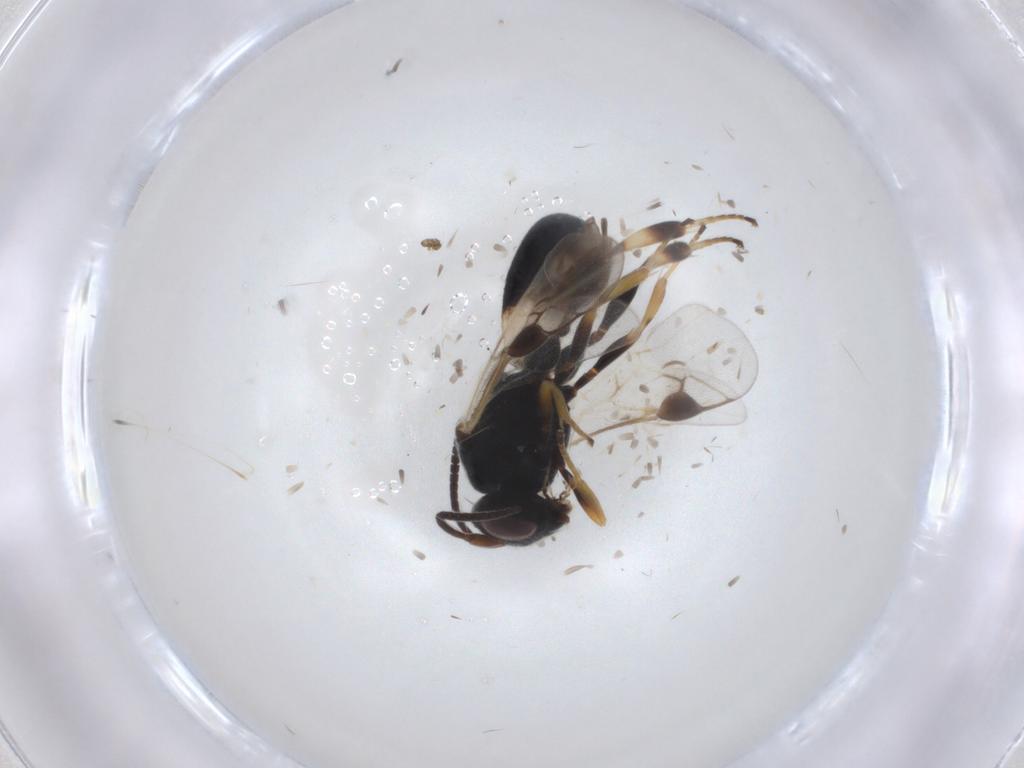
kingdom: Animalia
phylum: Arthropoda
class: Insecta
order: Hymenoptera
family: Braconidae
